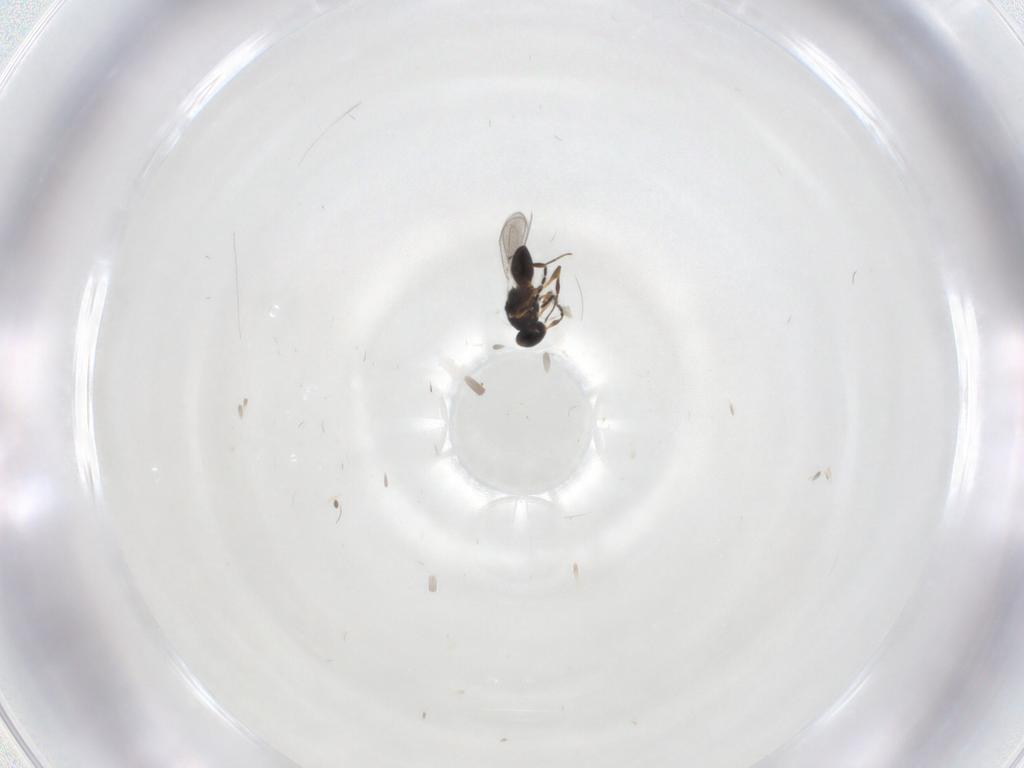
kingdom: Animalia
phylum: Arthropoda
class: Insecta
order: Hymenoptera
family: Platygastridae
